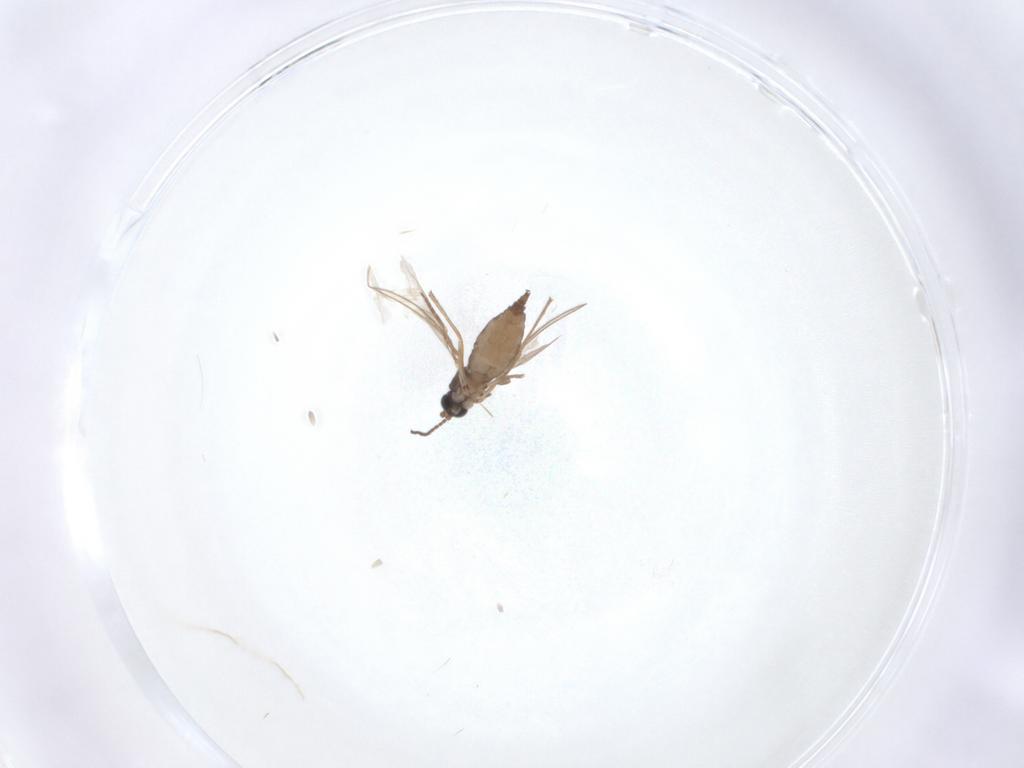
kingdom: Animalia
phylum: Arthropoda
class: Insecta
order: Diptera
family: Sciaridae
